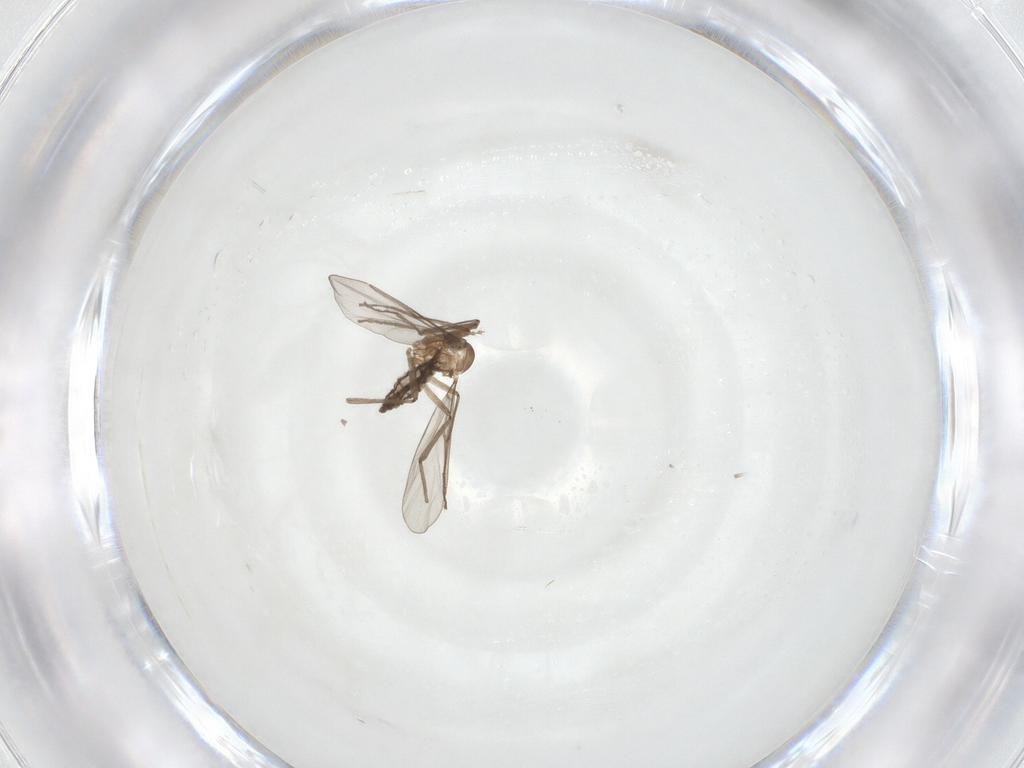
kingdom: Animalia
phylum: Arthropoda
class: Insecta
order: Diptera
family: Cecidomyiidae
